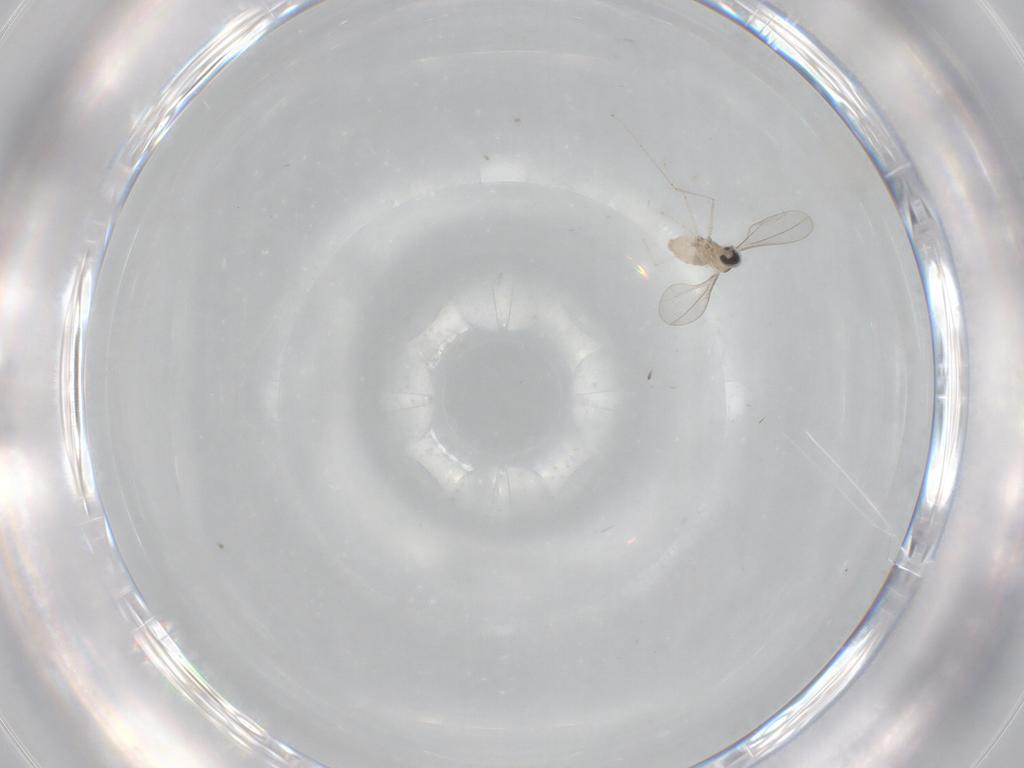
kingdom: Animalia
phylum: Arthropoda
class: Insecta
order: Diptera
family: Cecidomyiidae
